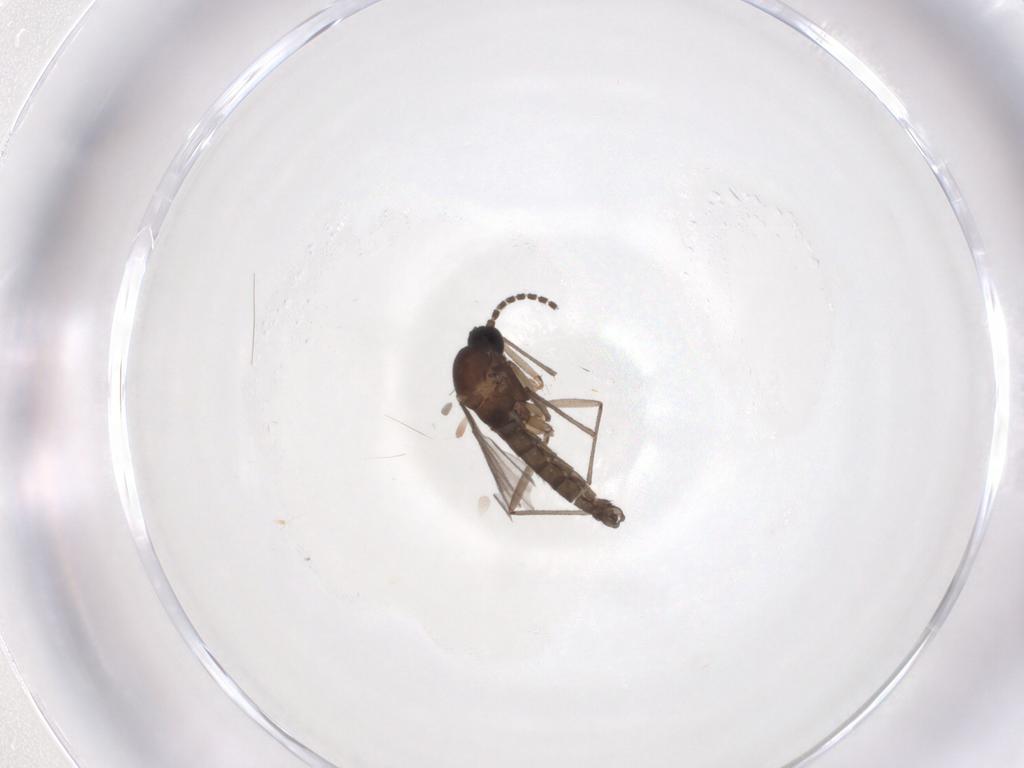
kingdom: Animalia
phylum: Arthropoda
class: Insecta
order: Diptera
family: Sciaridae
